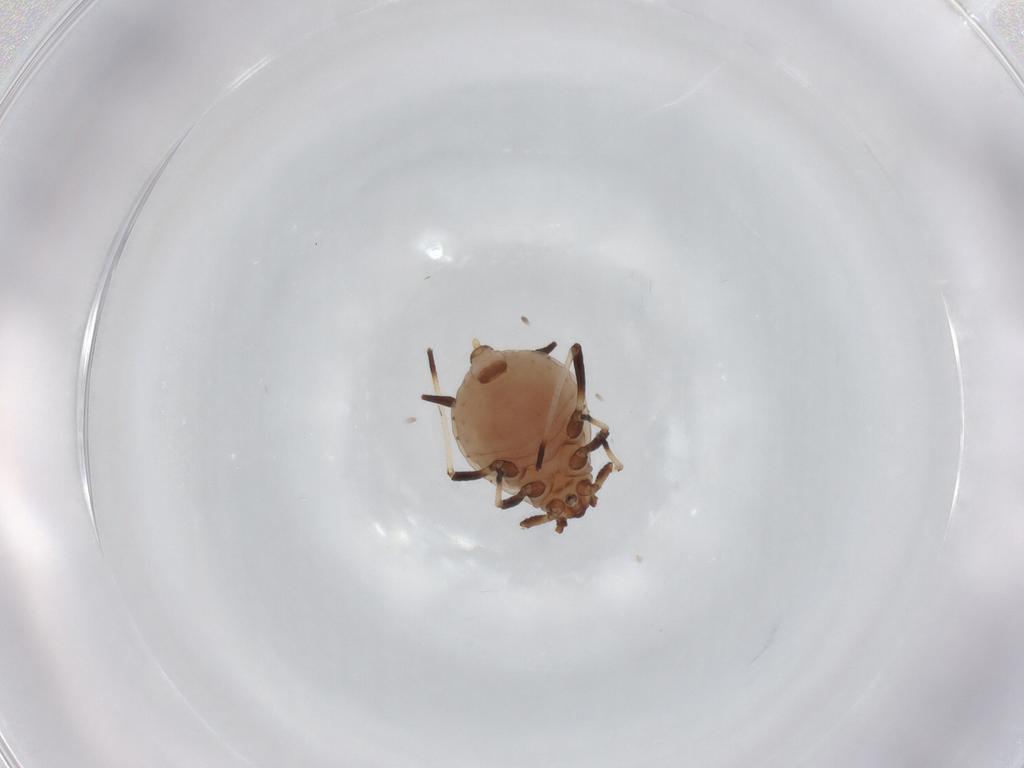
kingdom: Animalia
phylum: Arthropoda
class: Insecta
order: Hemiptera
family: Aphididae
